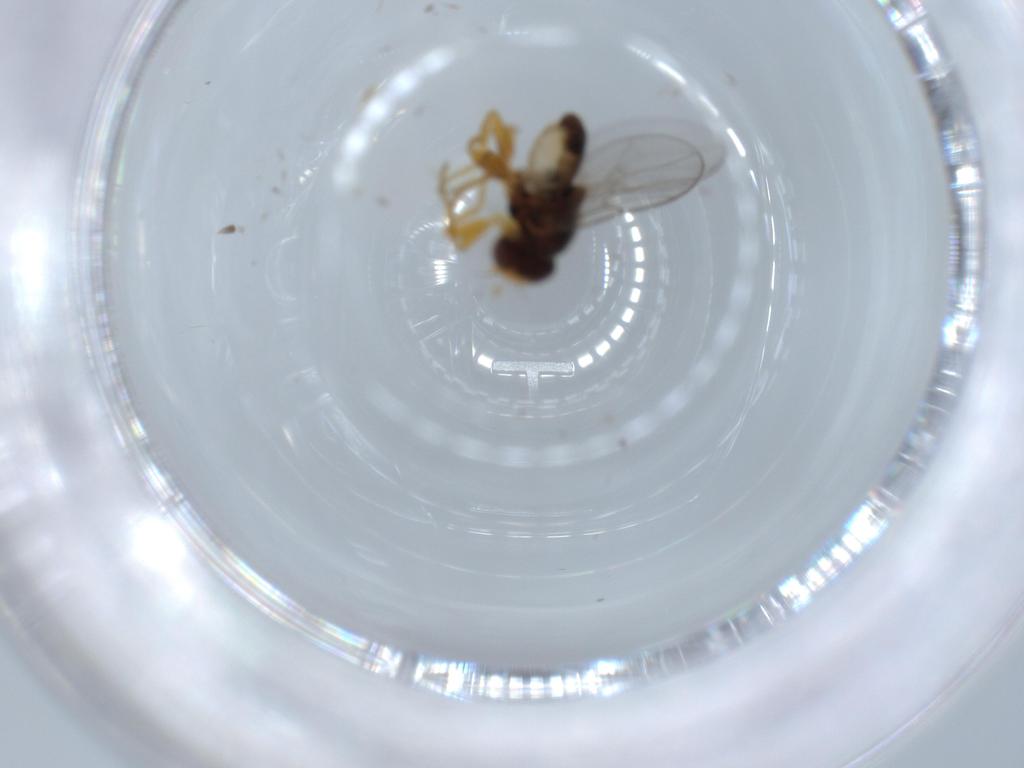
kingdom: Animalia
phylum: Arthropoda
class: Insecta
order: Diptera
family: Chloropidae
